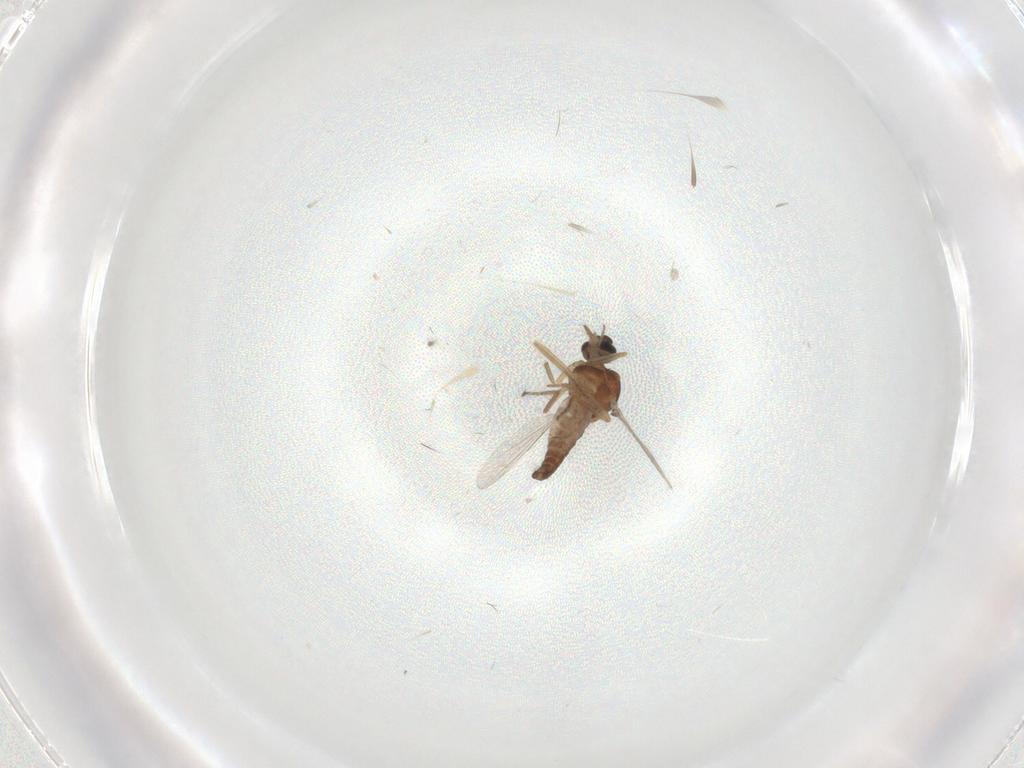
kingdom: Animalia
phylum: Arthropoda
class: Insecta
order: Diptera
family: Ceratopogonidae
